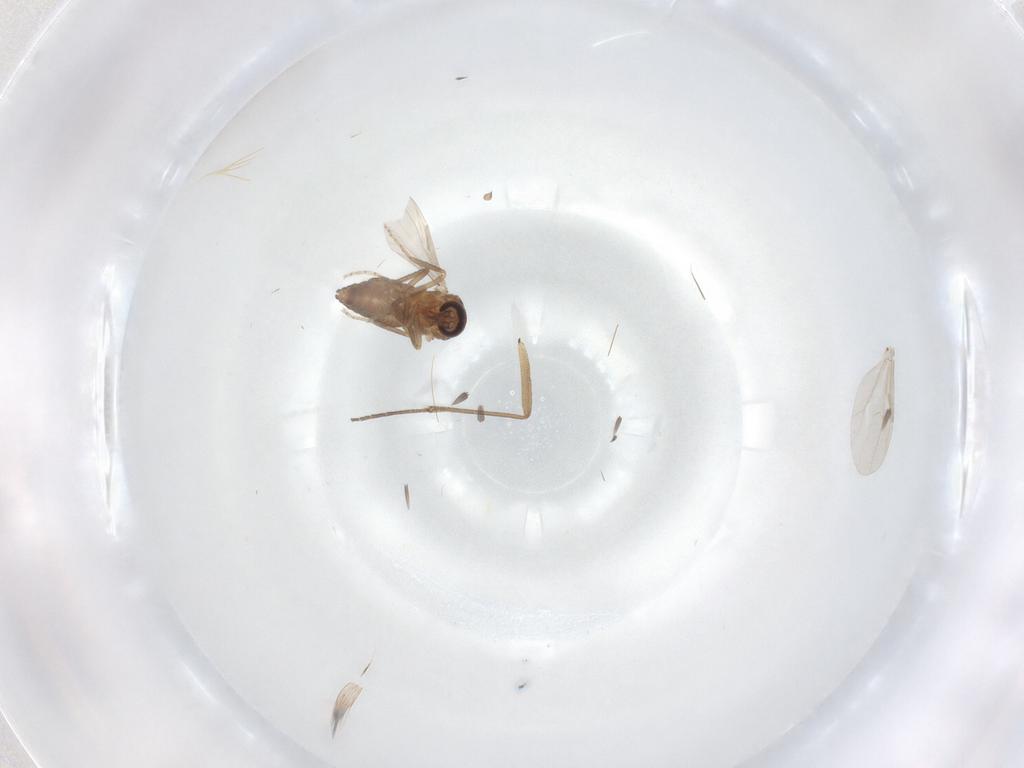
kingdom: Animalia
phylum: Arthropoda
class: Insecta
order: Diptera
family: Ceratopogonidae
